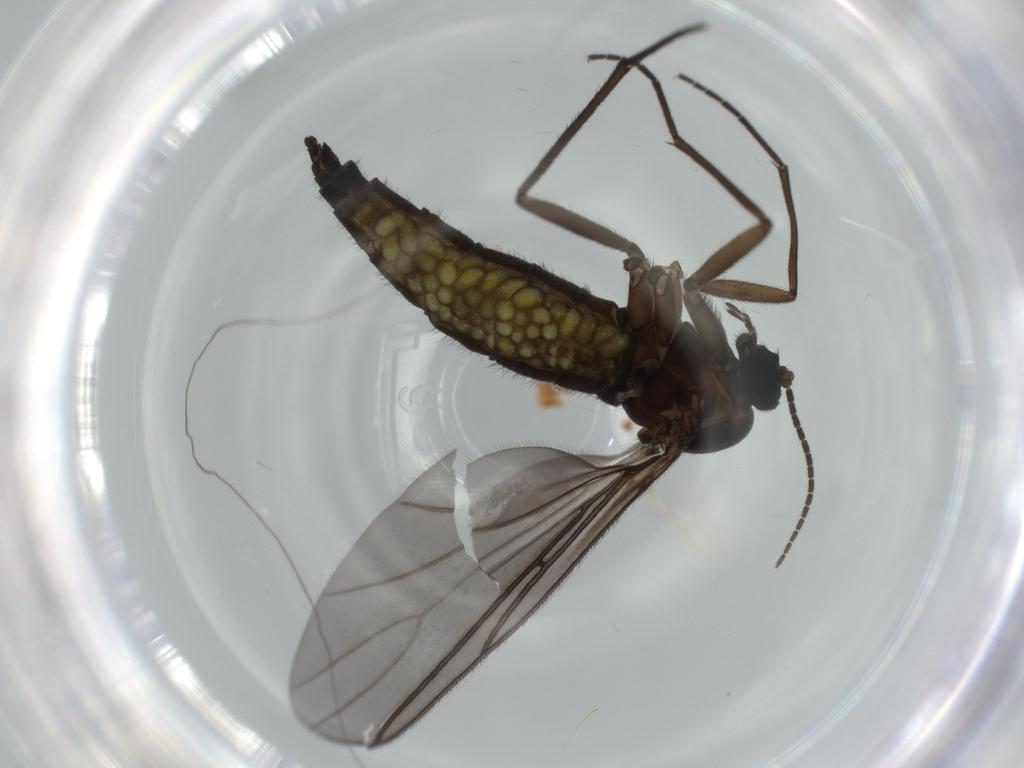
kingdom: Animalia
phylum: Arthropoda
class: Insecta
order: Diptera
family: Sciaridae
